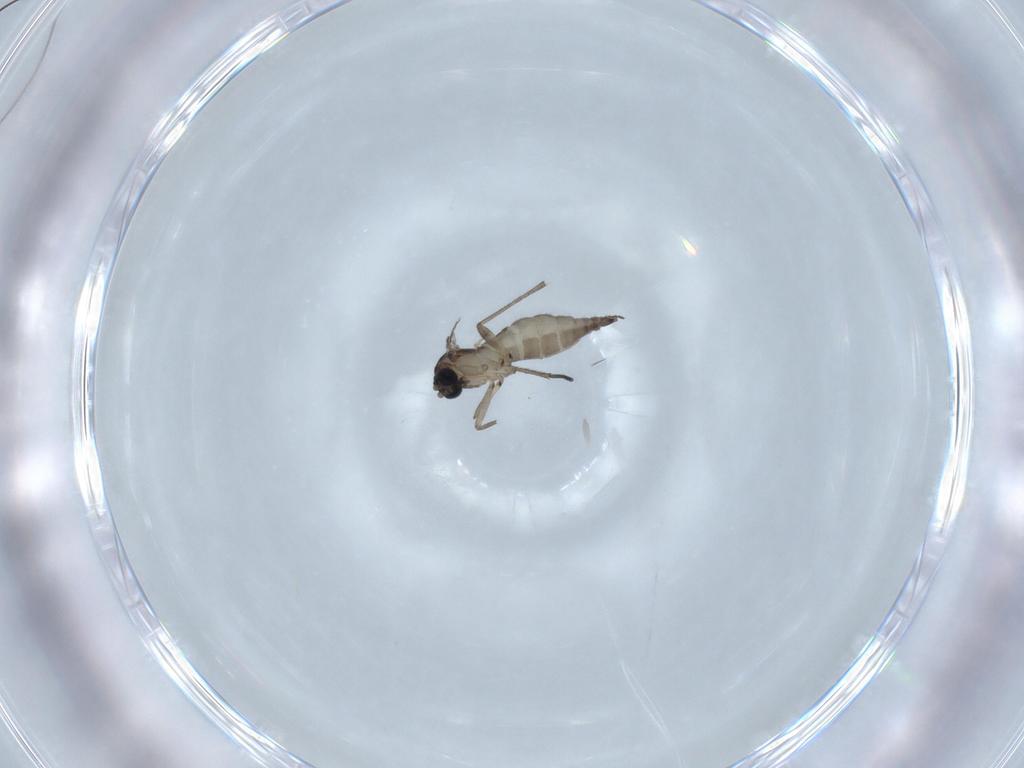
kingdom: Animalia
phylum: Arthropoda
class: Insecta
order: Diptera
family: Sciaridae
